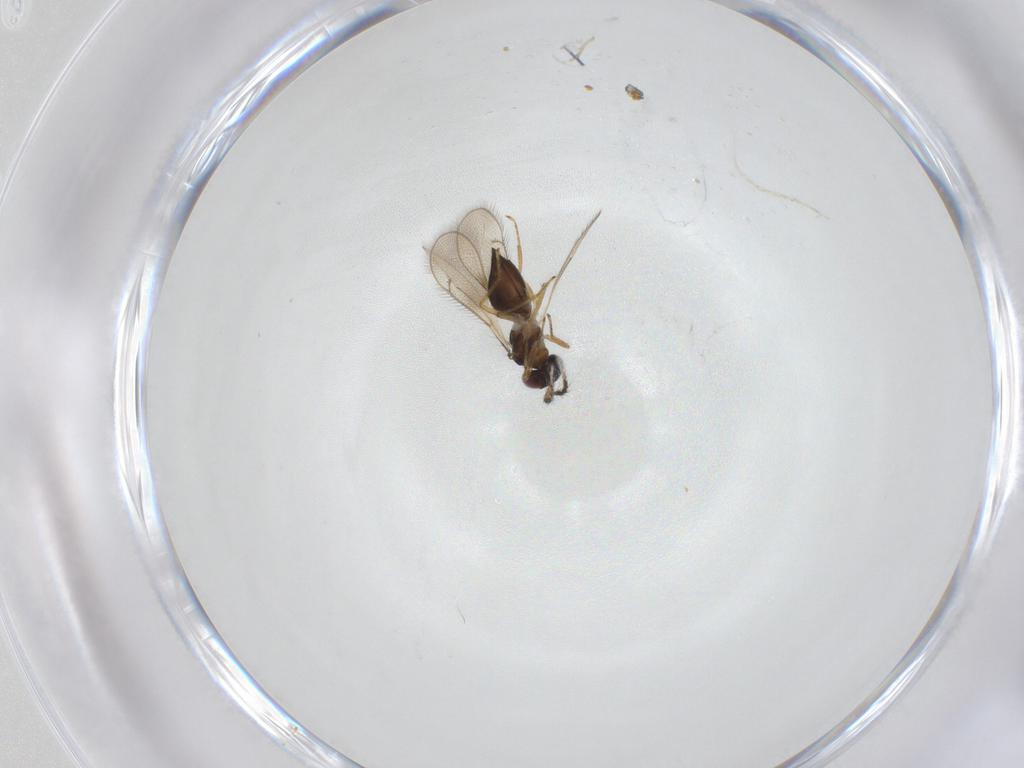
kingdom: Animalia
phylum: Arthropoda
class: Insecta
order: Hymenoptera
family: Eulophidae
